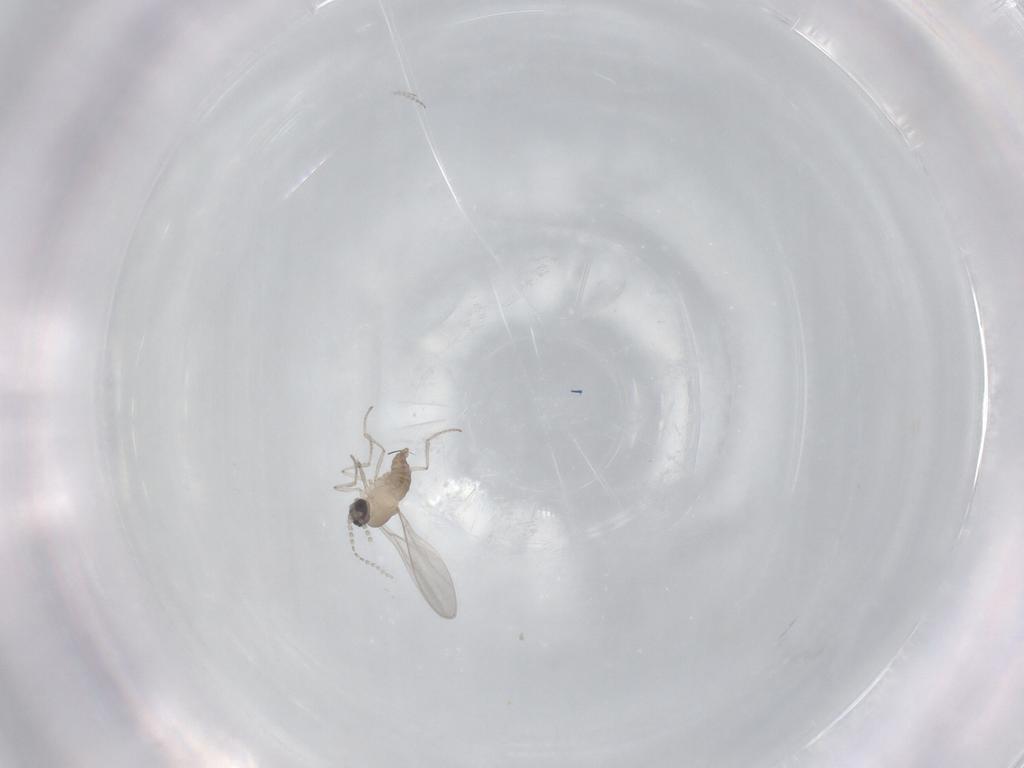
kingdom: Animalia
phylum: Arthropoda
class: Insecta
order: Diptera
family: Cecidomyiidae
